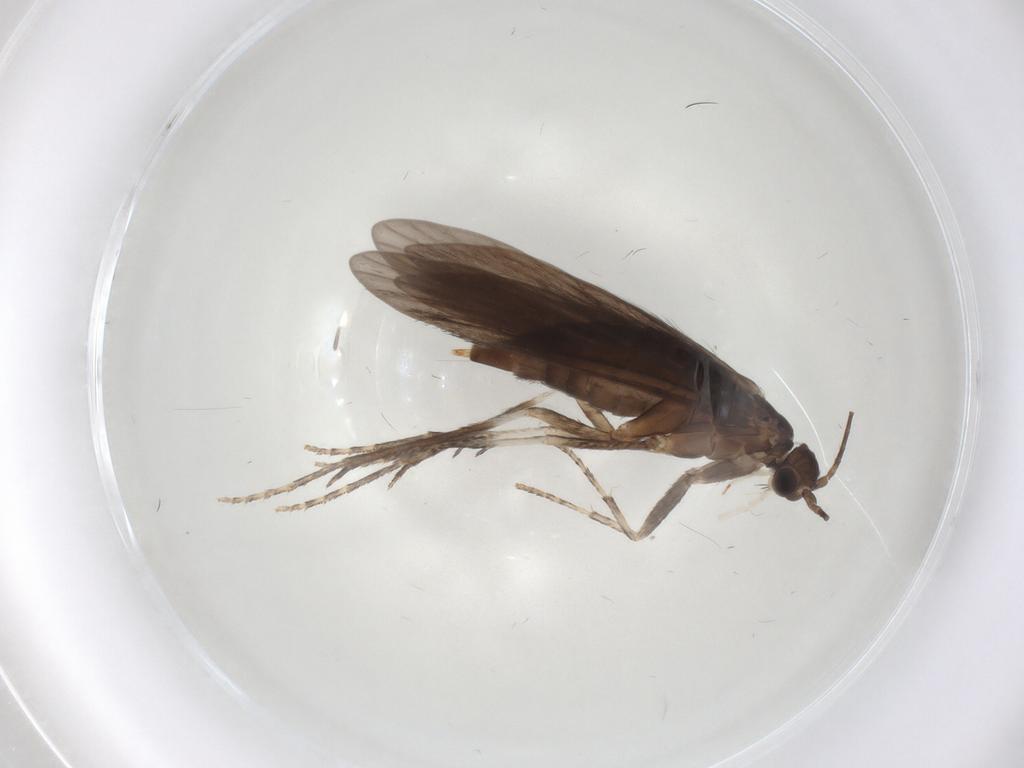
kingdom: Animalia
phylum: Arthropoda
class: Insecta
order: Trichoptera
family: Xiphocentronidae
